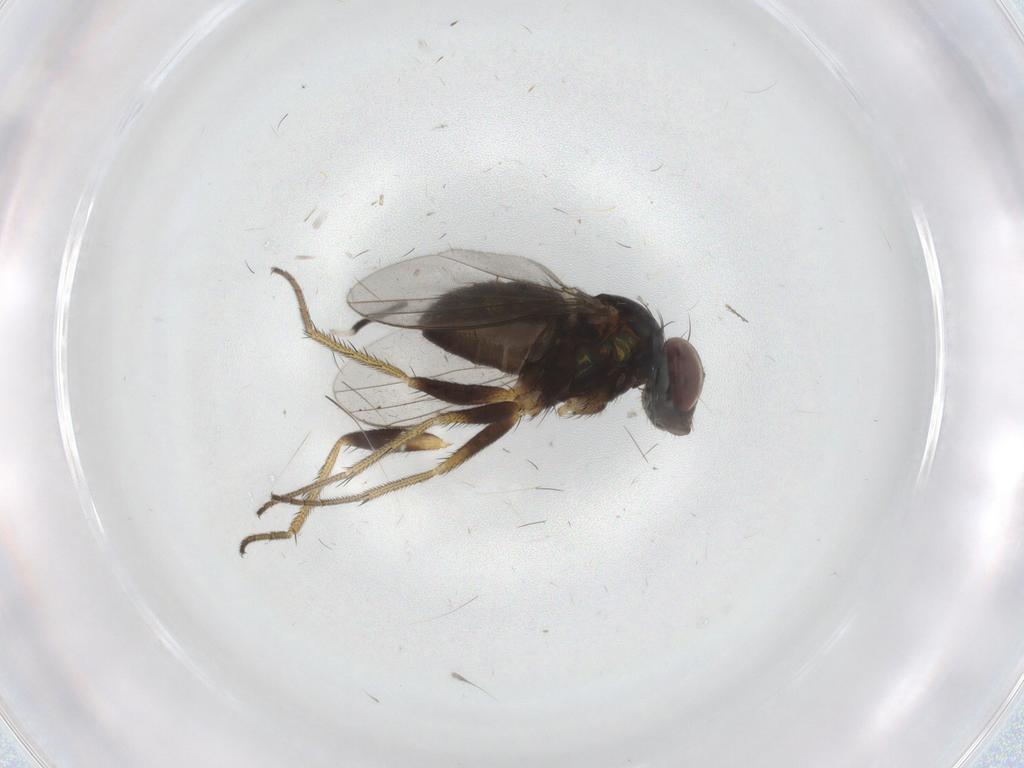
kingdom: Animalia
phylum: Arthropoda
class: Insecta
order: Diptera
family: Sciaridae
